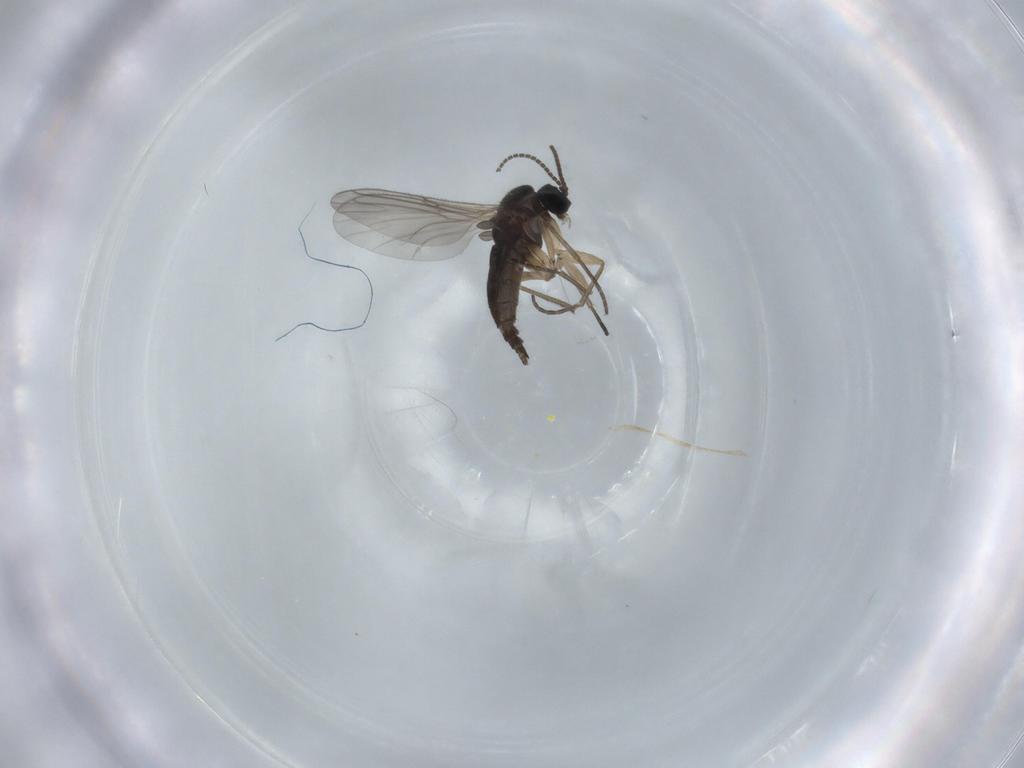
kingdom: Animalia
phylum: Arthropoda
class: Insecta
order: Diptera
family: Sciaridae
